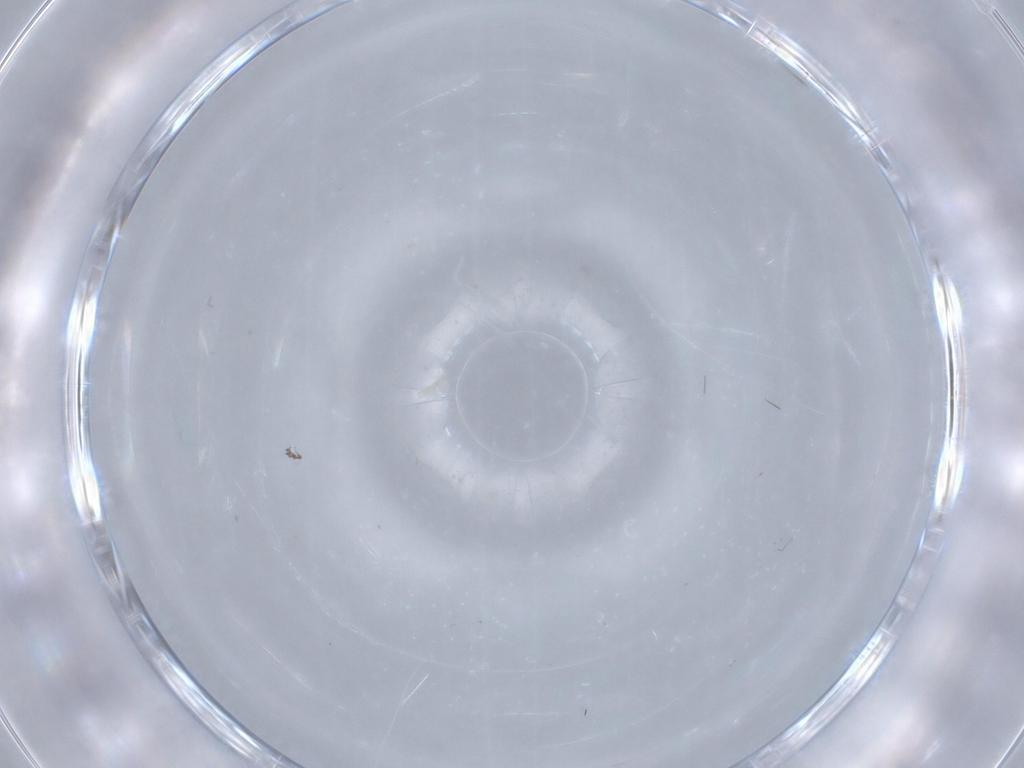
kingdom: Animalia
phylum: Arthropoda
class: Insecta
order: Diptera
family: Chironomidae
